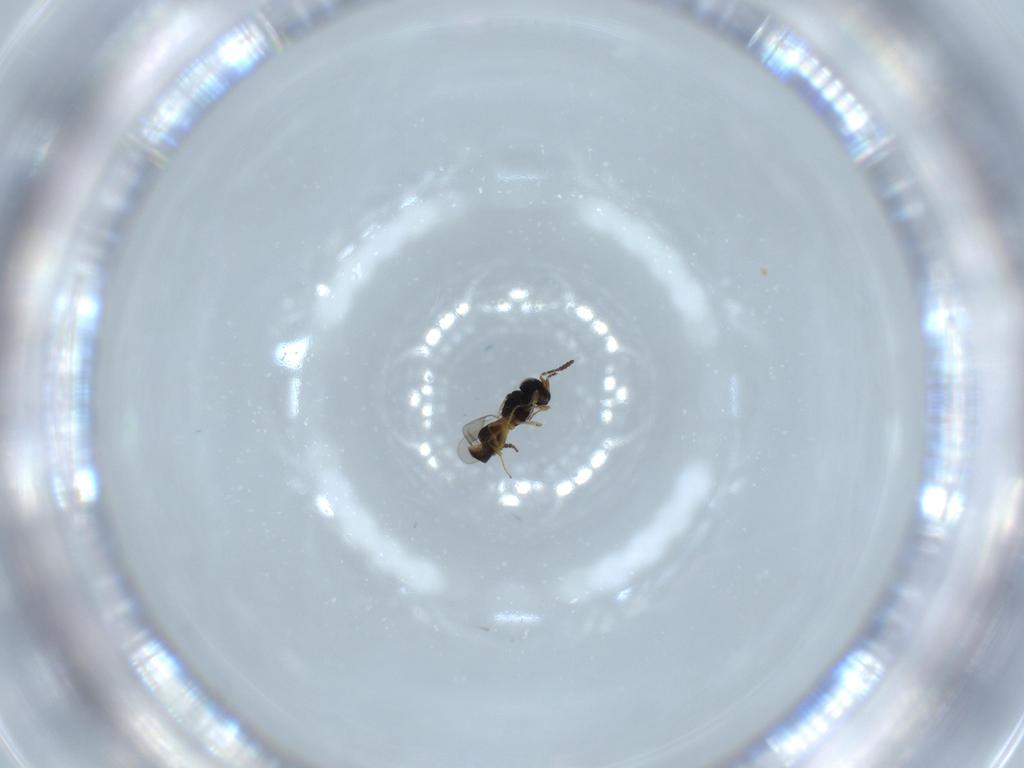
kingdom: Animalia
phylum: Arthropoda
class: Insecta
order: Hymenoptera
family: Scelionidae
